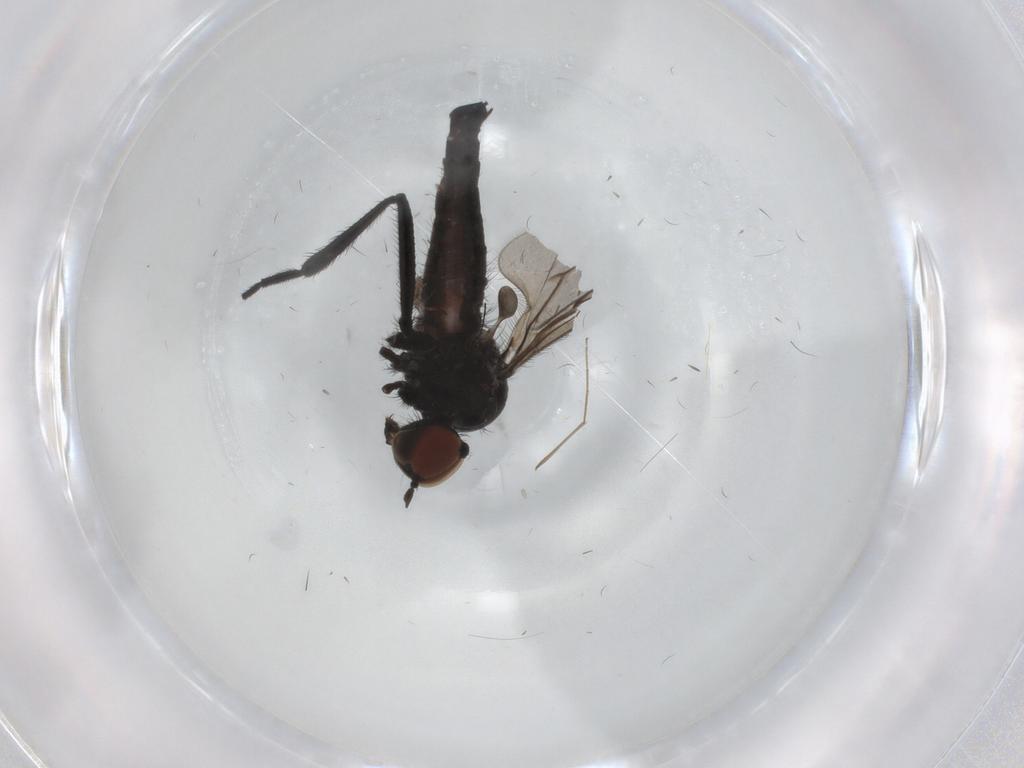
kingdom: Animalia
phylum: Arthropoda
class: Insecta
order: Diptera
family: Hybotidae
